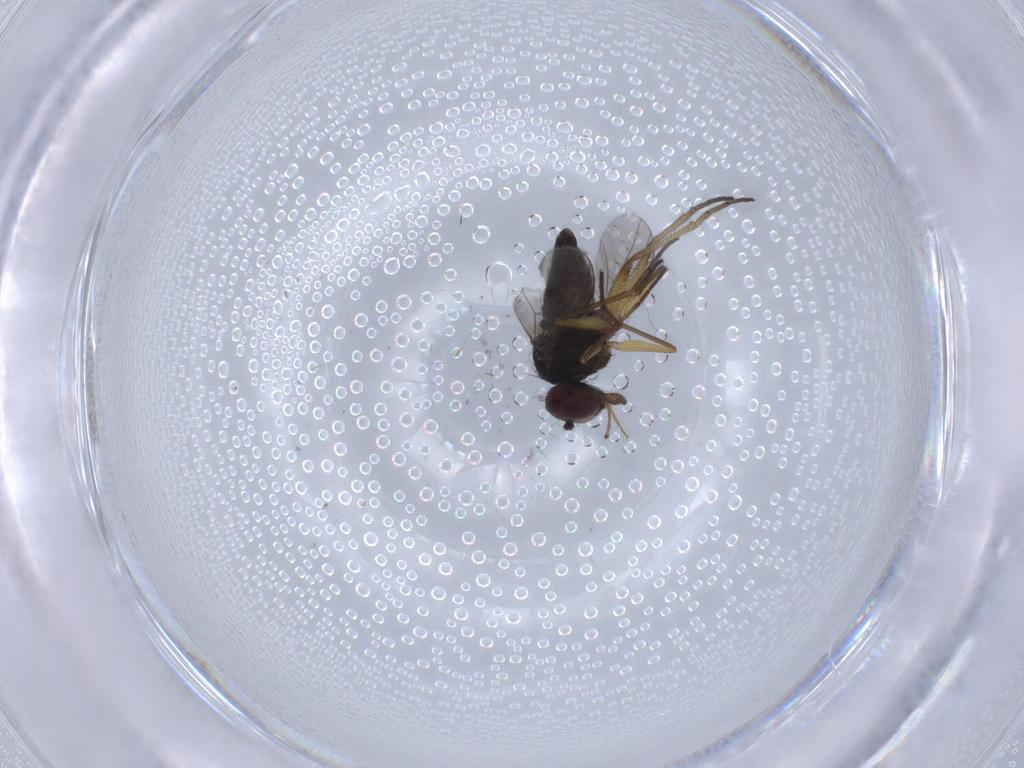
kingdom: Animalia
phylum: Arthropoda
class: Insecta
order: Diptera
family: Dolichopodidae
